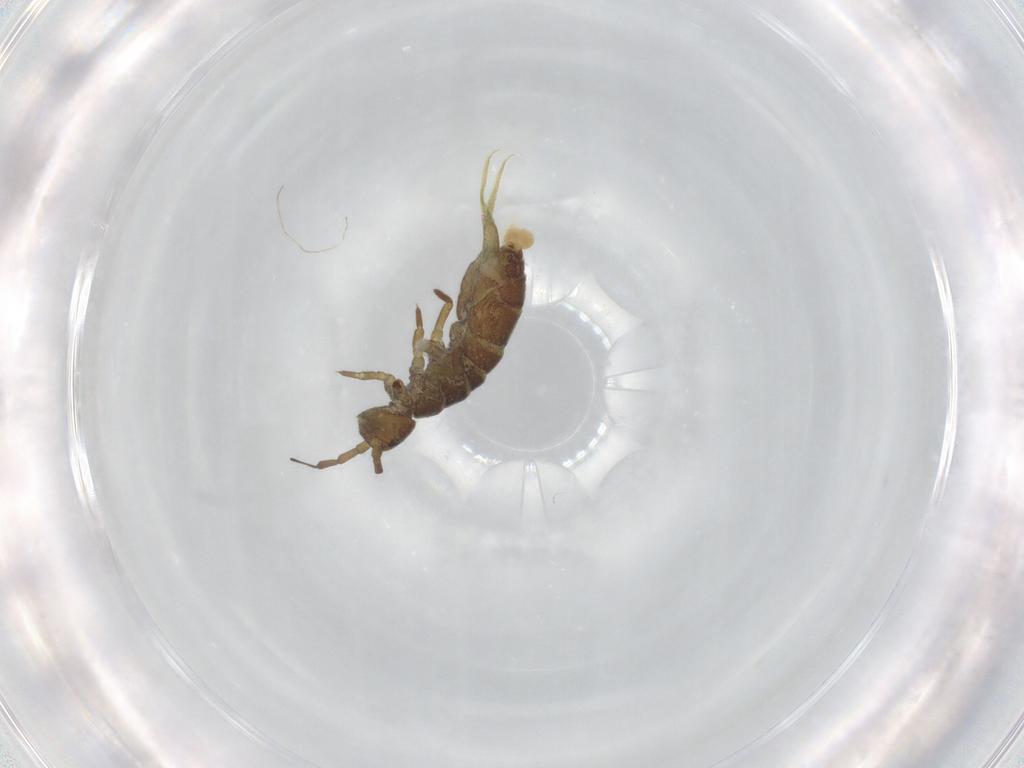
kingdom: Animalia
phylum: Arthropoda
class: Collembola
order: Entomobryomorpha
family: Isotomidae
